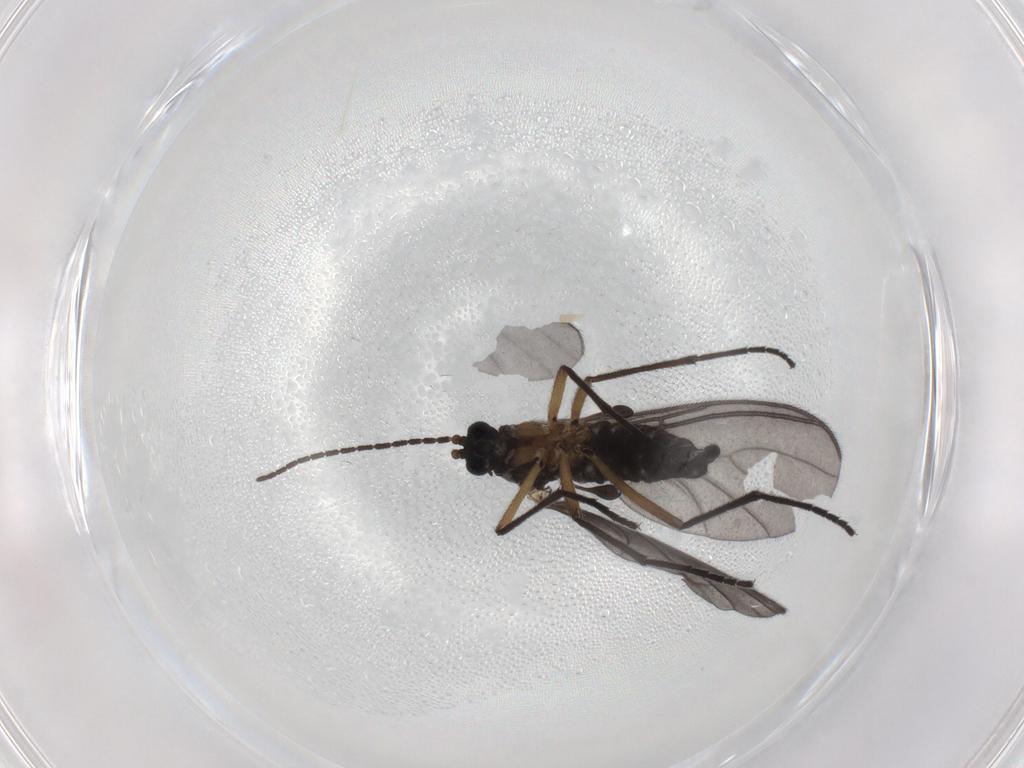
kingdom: Animalia
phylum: Arthropoda
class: Insecta
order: Diptera
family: Sciaridae
